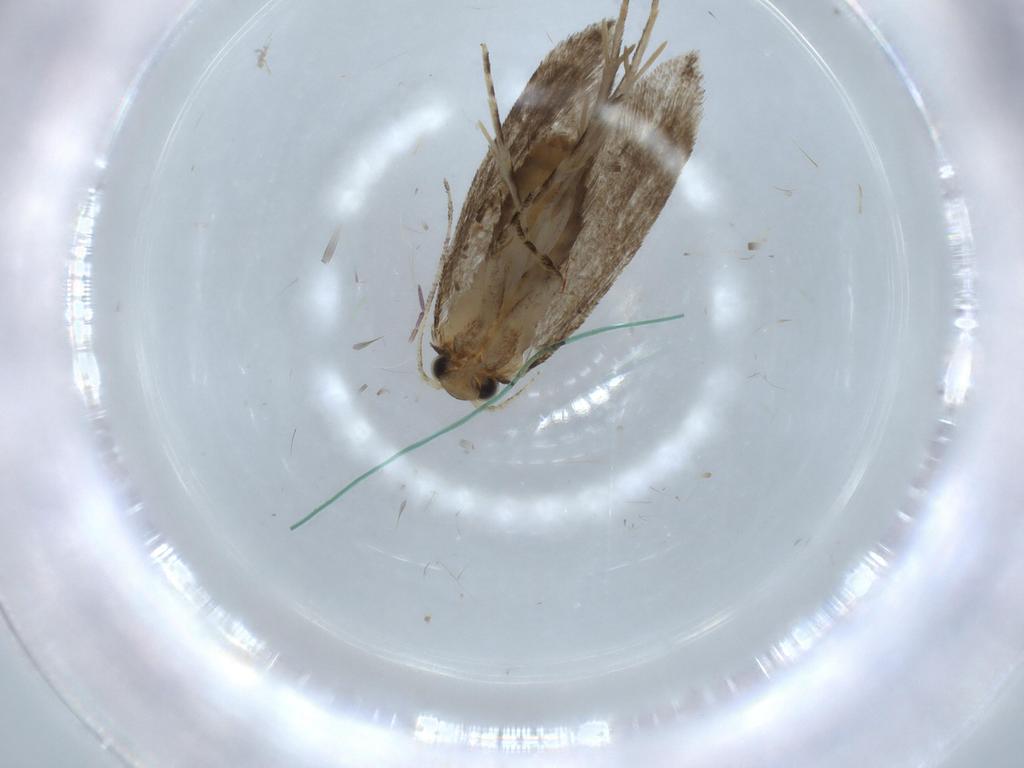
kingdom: Animalia
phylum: Arthropoda
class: Insecta
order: Lepidoptera
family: Tineidae
